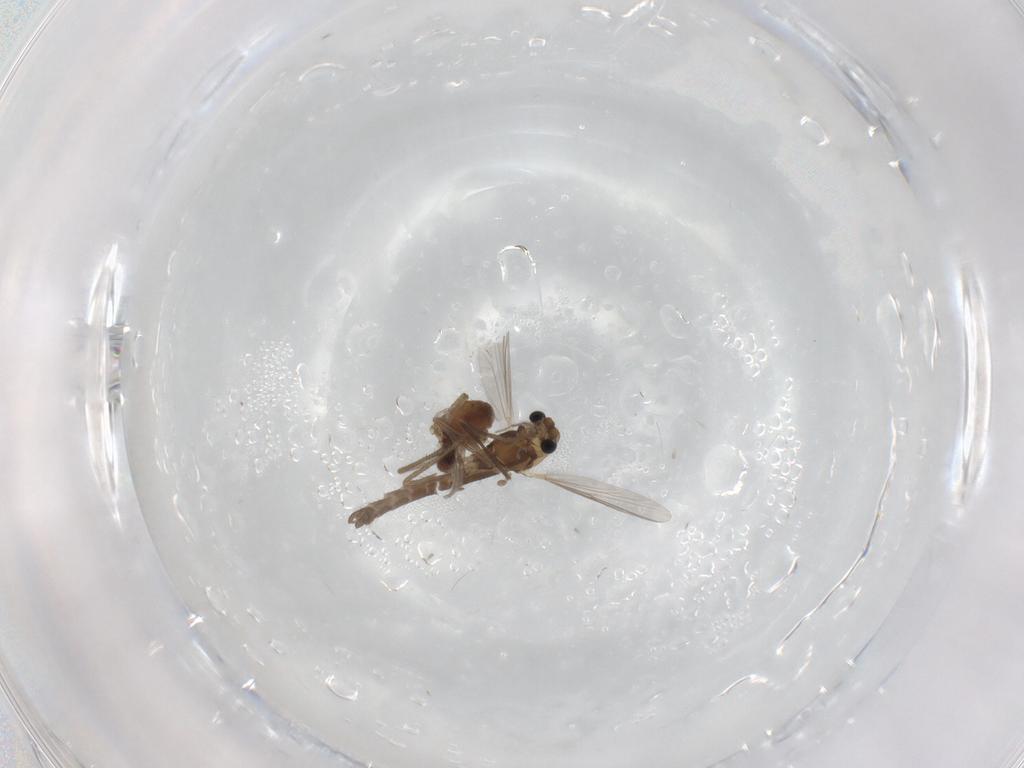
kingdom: Animalia
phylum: Arthropoda
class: Insecta
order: Diptera
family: Chironomidae
